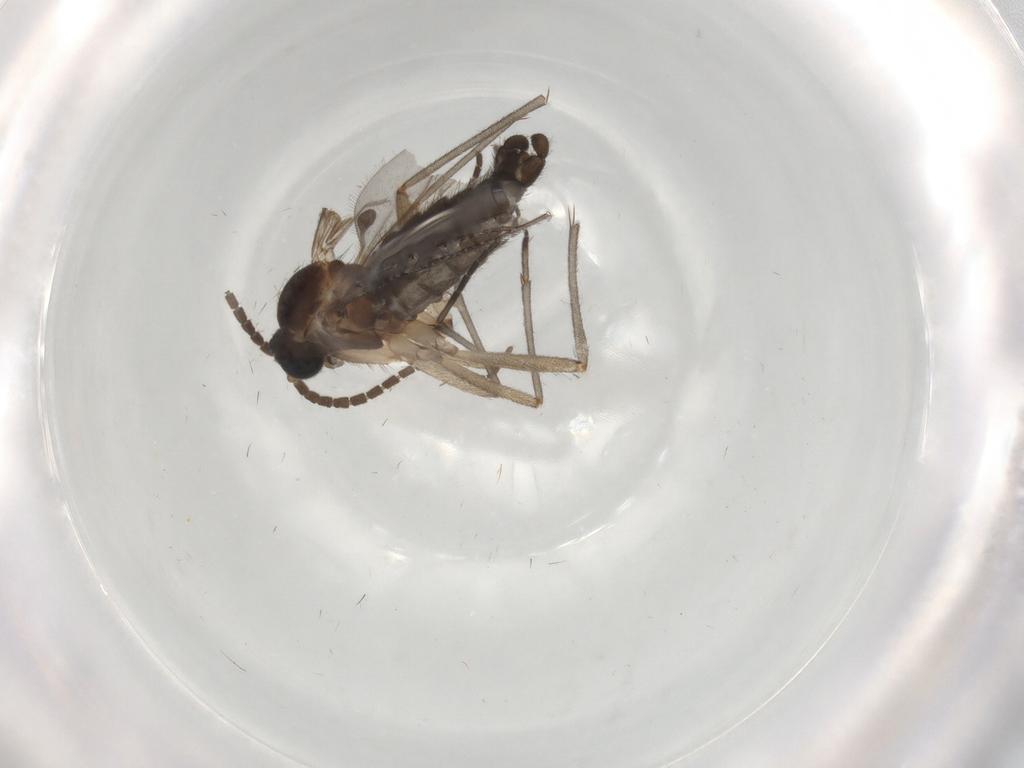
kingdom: Animalia
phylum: Arthropoda
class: Insecta
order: Diptera
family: Sciaridae
